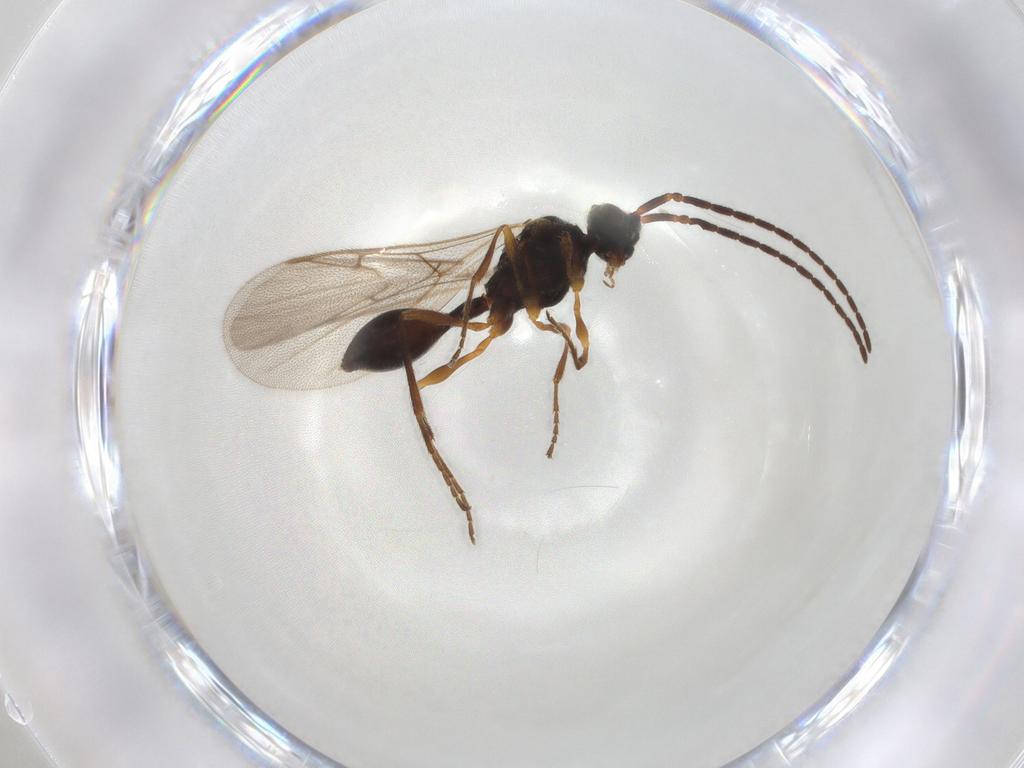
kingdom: Animalia
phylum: Arthropoda
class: Insecta
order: Hymenoptera
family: Diapriidae
